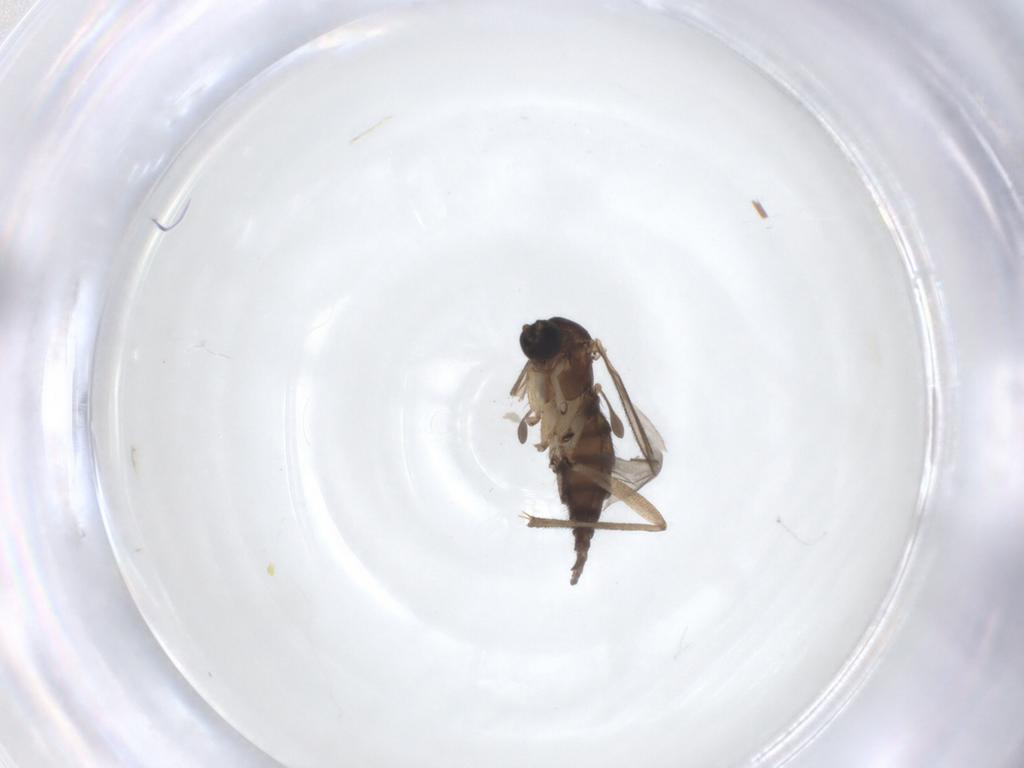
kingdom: Animalia
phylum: Arthropoda
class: Insecta
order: Diptera
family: Sciaridae
